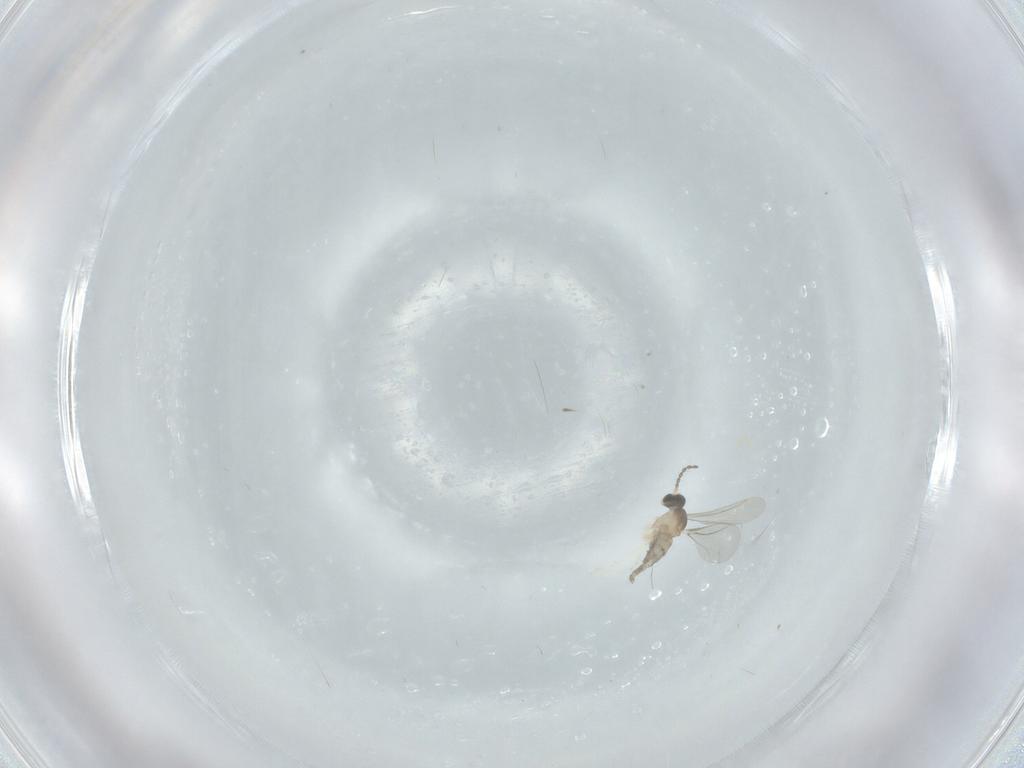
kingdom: Animalia
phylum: Arthropoda
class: Insecta
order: Diptera
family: Cecidomyiidae
